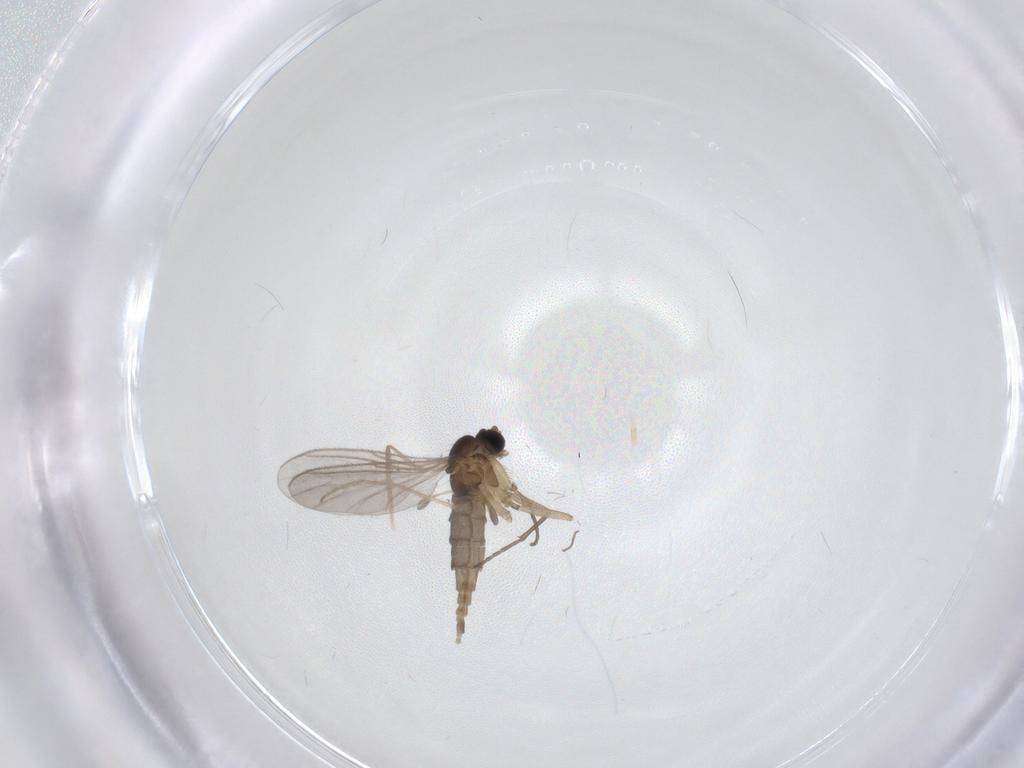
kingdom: Animalia
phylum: Arthropoda
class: Insecta
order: Diptera
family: Sciaridae
